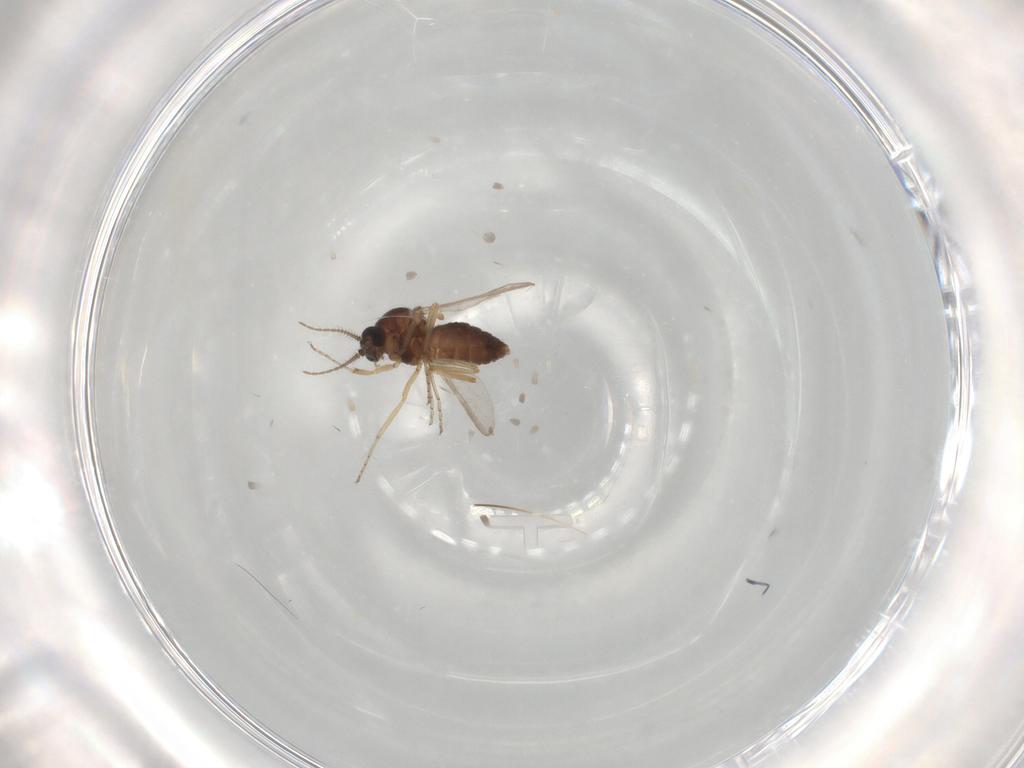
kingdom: Animalia
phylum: Arthropoda
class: Insecta
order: Diptera
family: Ceratopogonidae
